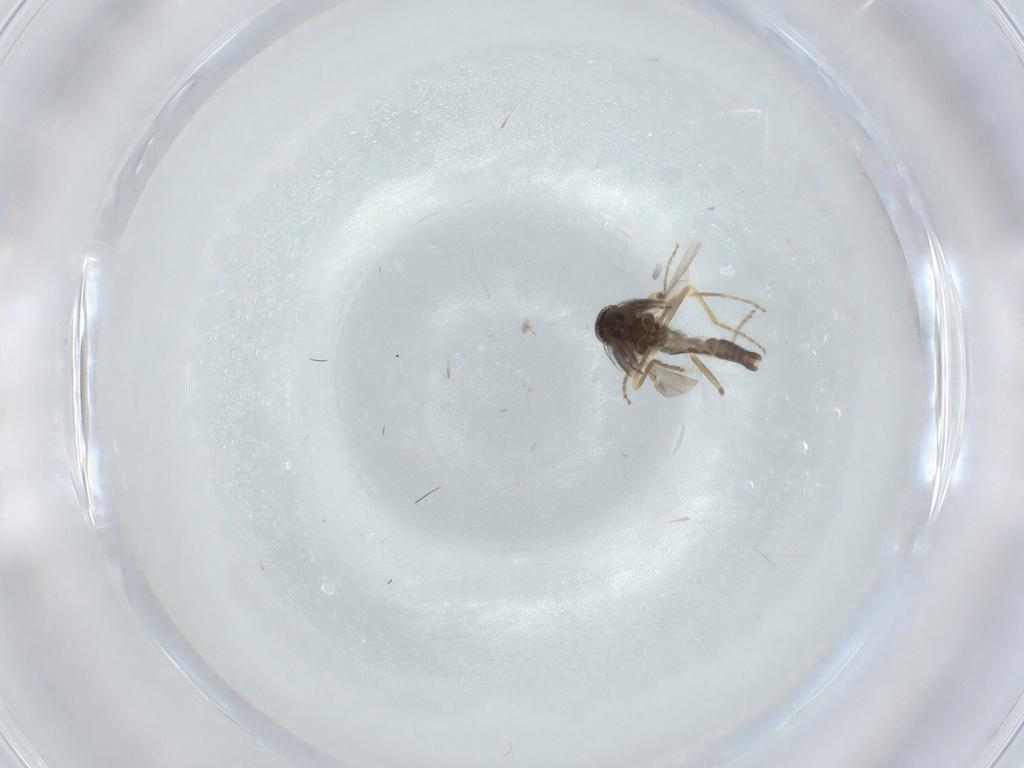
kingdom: Animalia
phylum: Arthropoda
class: Insecta
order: Diptera
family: Ceratopogonidae
